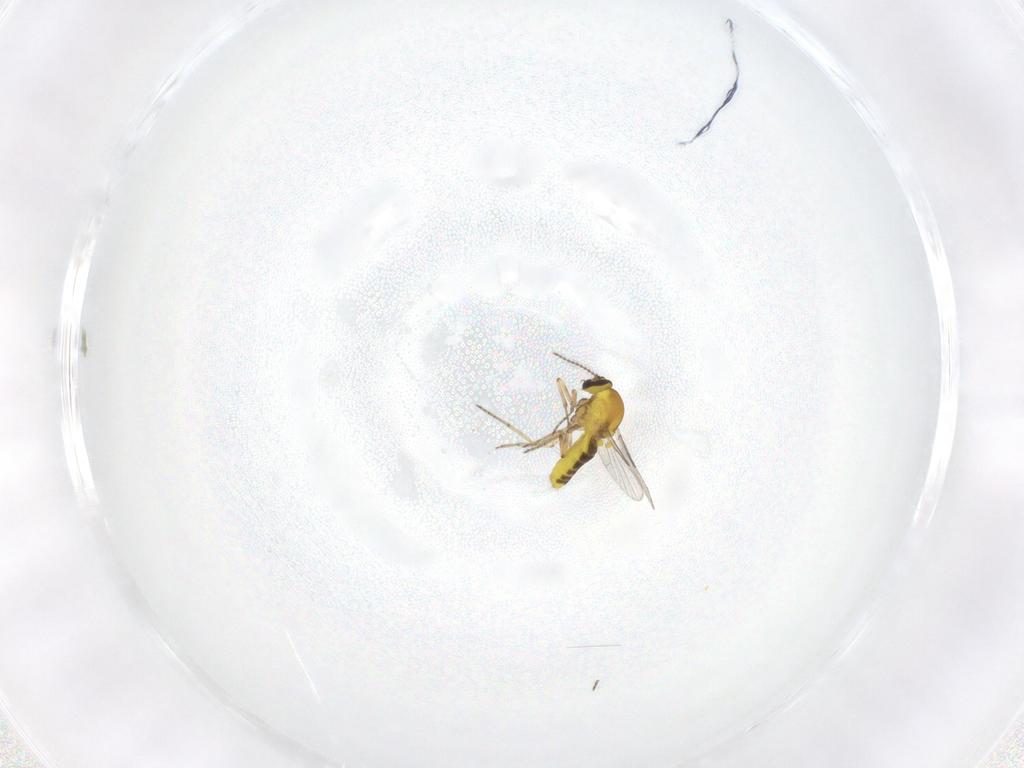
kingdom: Animalia
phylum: Arthropoda
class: Insecta
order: Diptera
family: Ceratopogonidae
